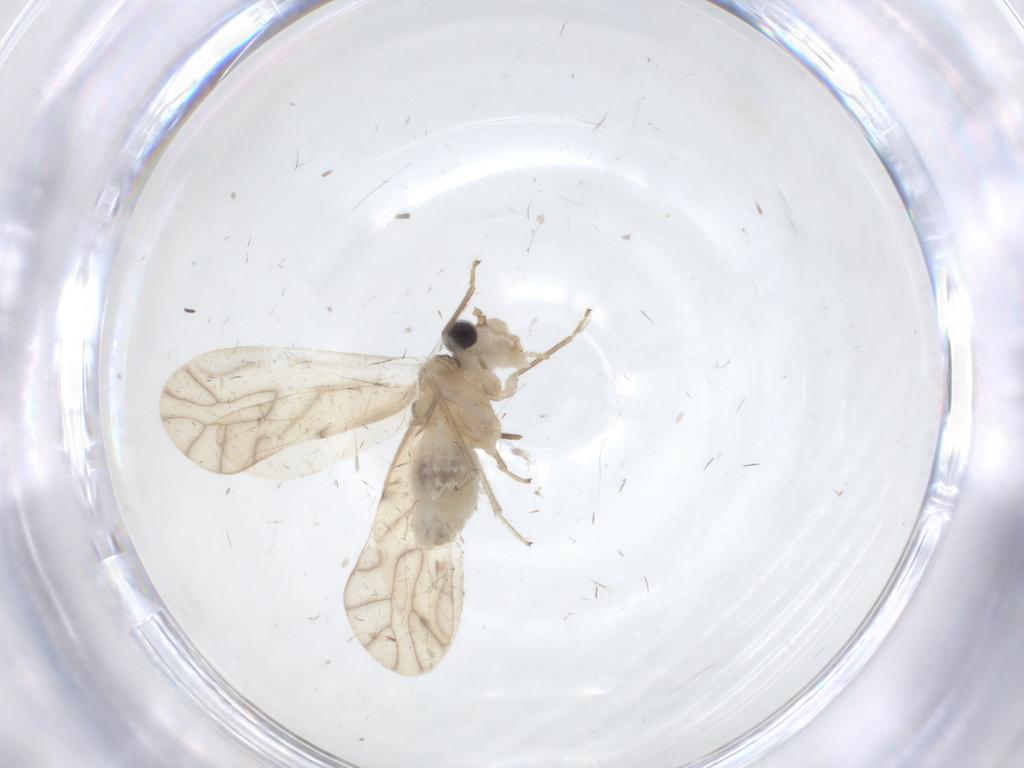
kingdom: Animalia
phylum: Arthropoda
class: Insecta
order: Psocodea
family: Caeciliusidae
